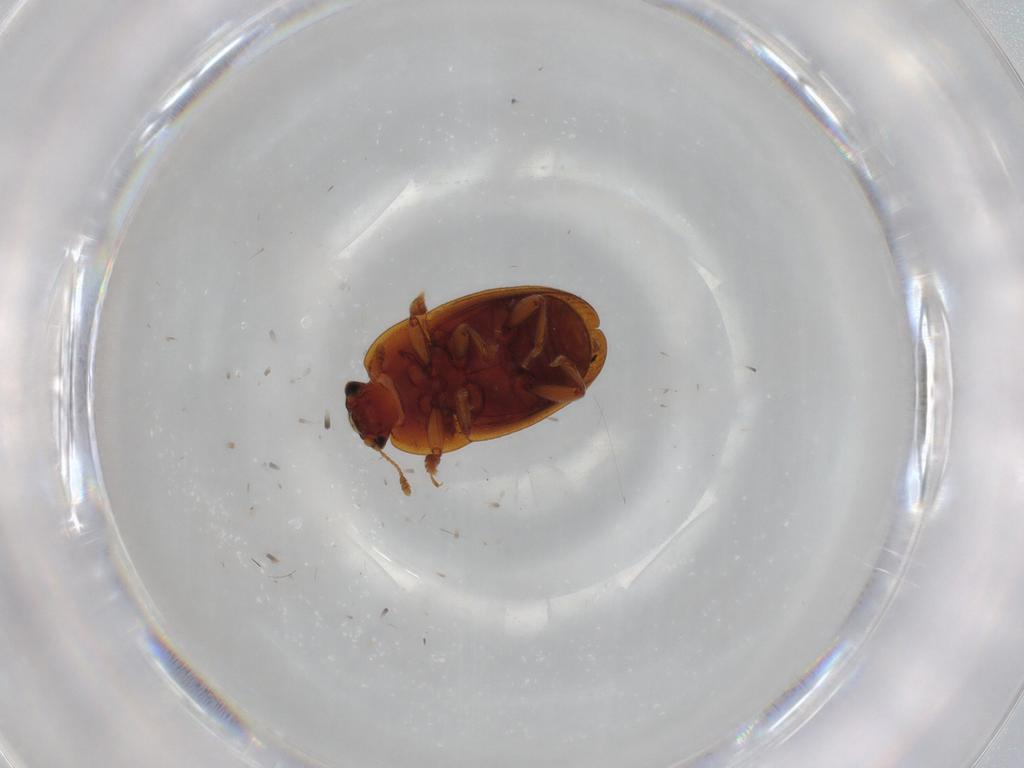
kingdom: Animalia
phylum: Arthropoda
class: Insecta
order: Coleoptera
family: Nitidulidae
